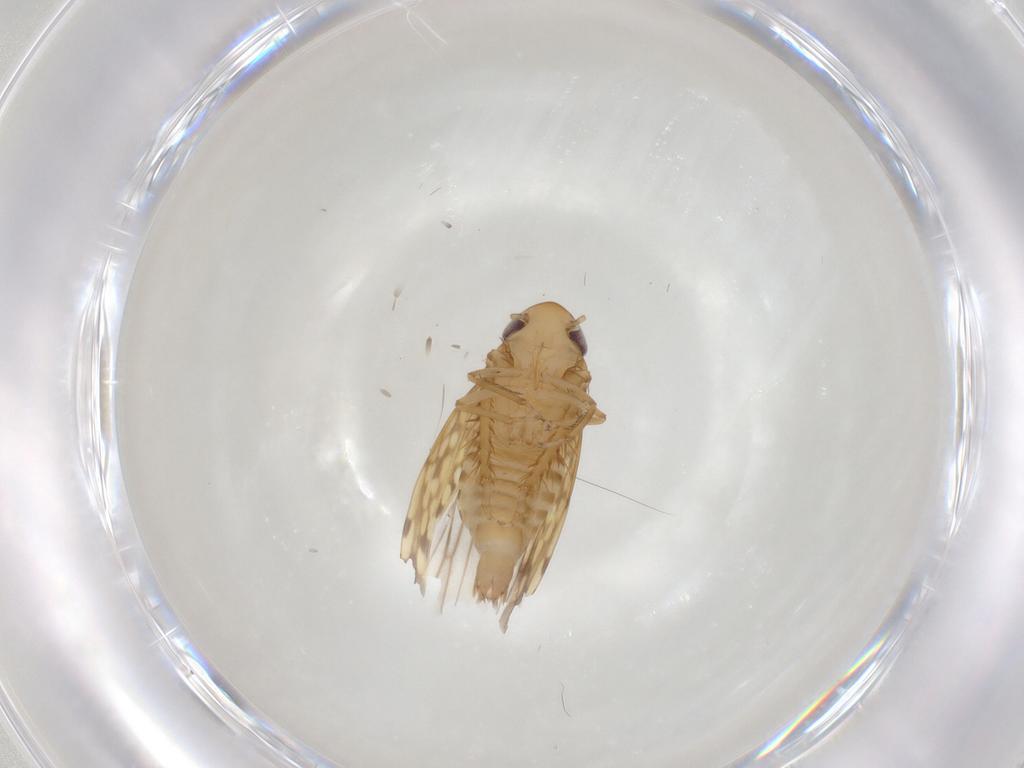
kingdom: Animalia
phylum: Arthropoda
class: Insecta
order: Hemiptera
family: Cicadellidae
